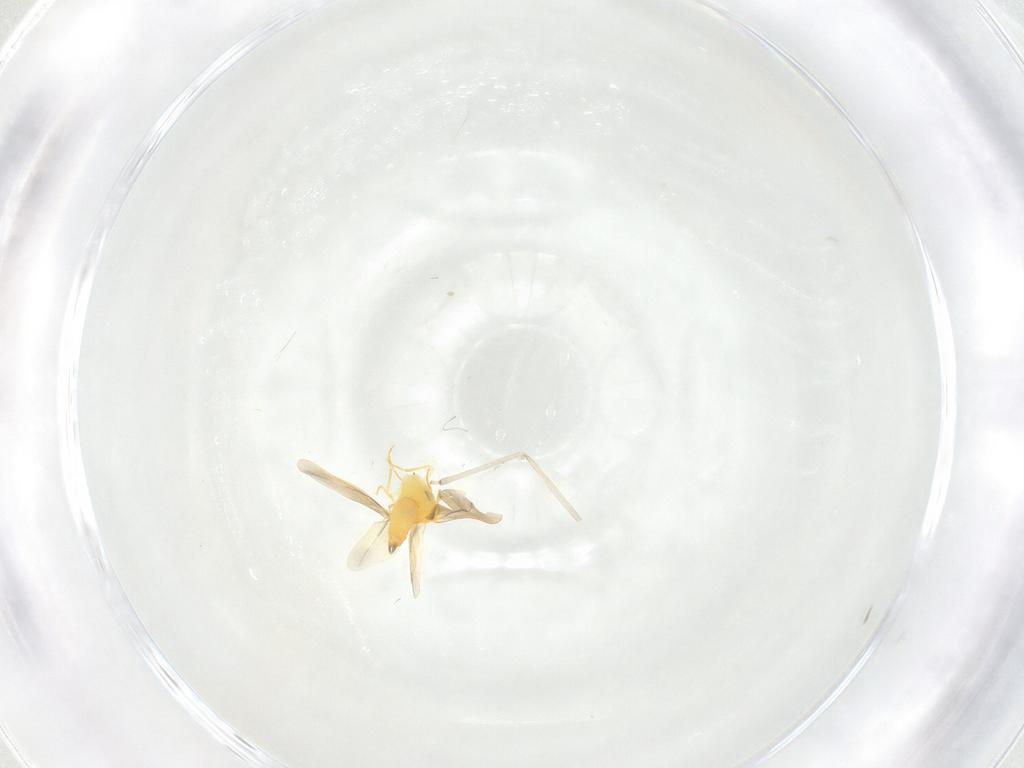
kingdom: Animalia
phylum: Arthropoda
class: Insecta
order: Hemiptera
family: Aleyrodidae
